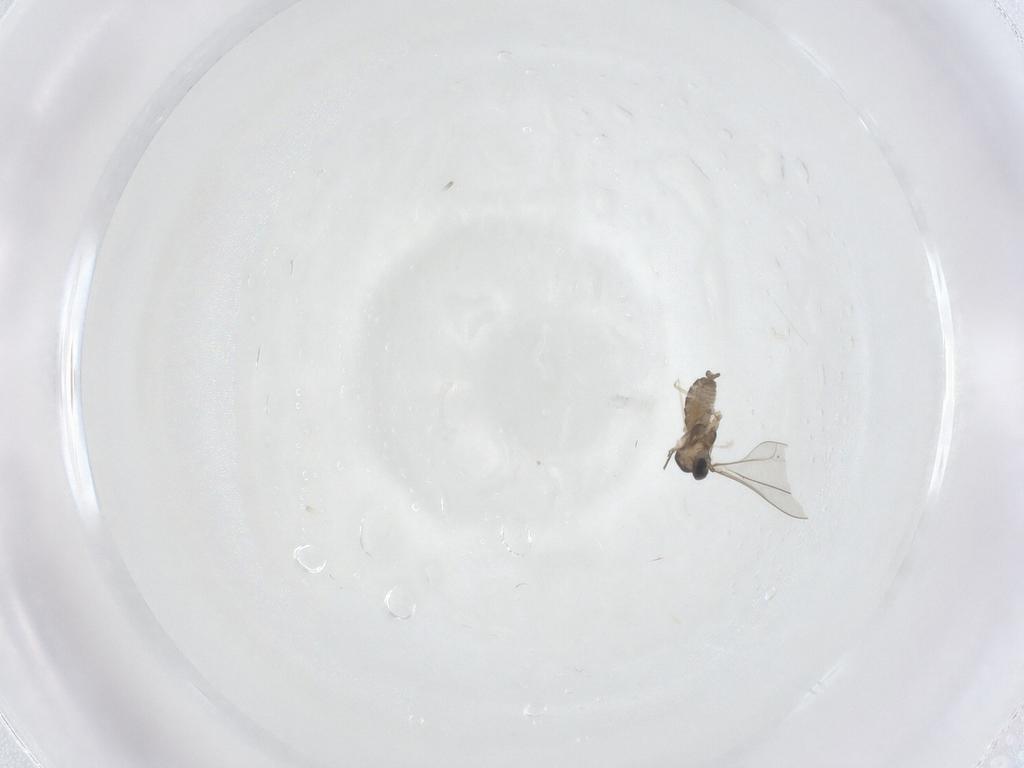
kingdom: Animalia
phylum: Arthropoda
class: Insecta
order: Diptera
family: Cecidomyiidae
